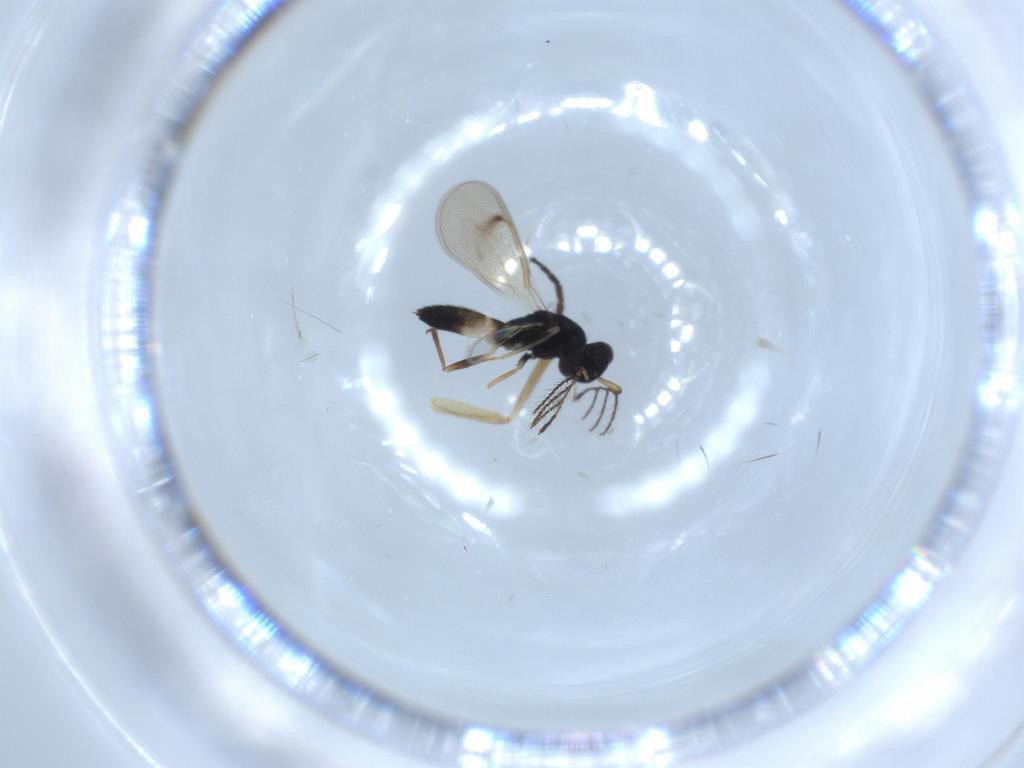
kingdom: Animalia
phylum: Arthropoda
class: Insecta
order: Hymenoptera
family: Eulophidae
